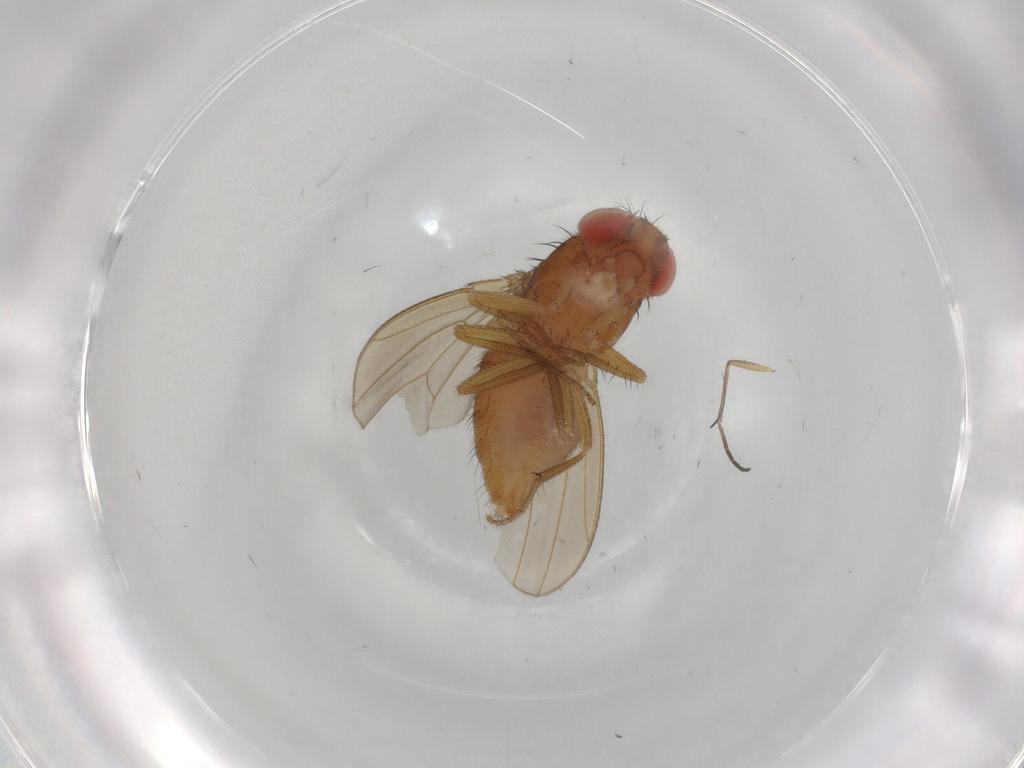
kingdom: Animalia
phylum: Arthropoda
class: Insecta
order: Diptera
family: Drosophilidae
